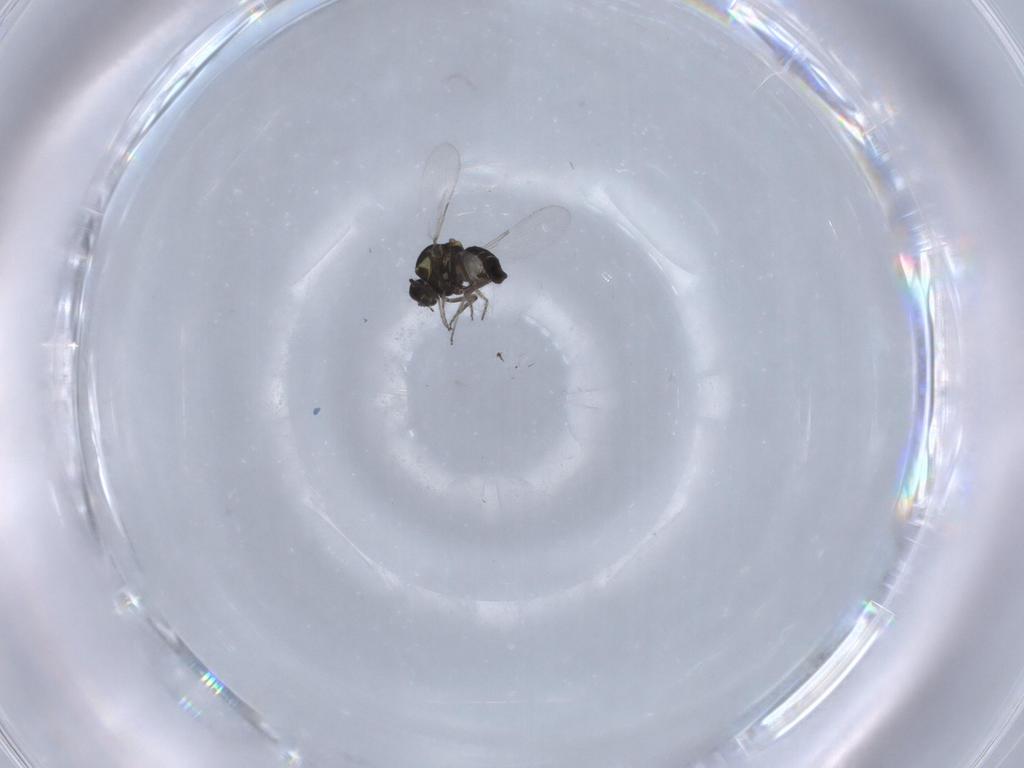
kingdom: Animalia
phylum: Arthropoda
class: Insecta
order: Diptera
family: Ceratopogonidae
